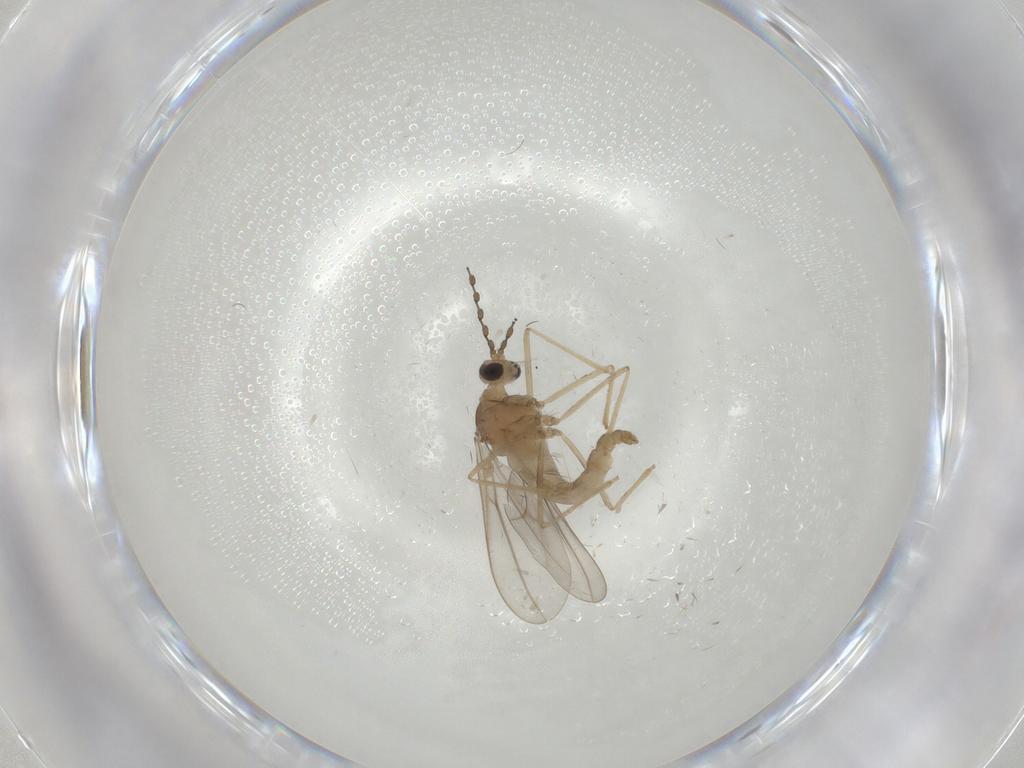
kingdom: Animalia
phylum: Arthropoda
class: Insecta
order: Diptera
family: Cecidomyiidae
